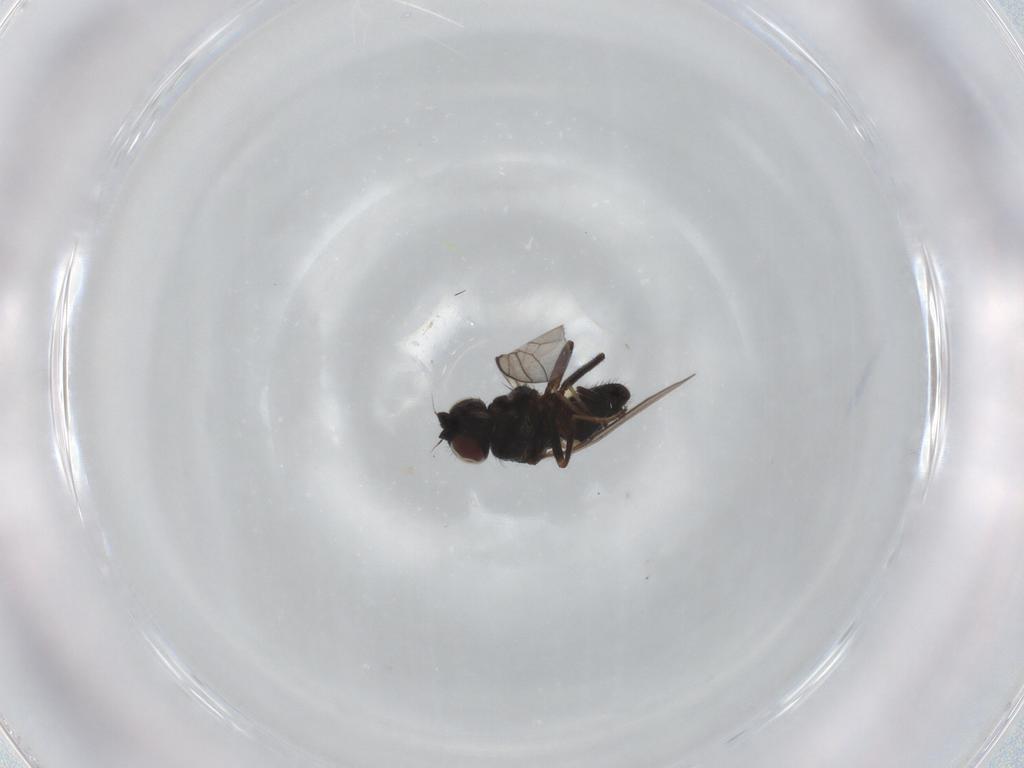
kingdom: Animalia
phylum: Arthropoda
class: Insecta
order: Diptera
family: Chloropidae
